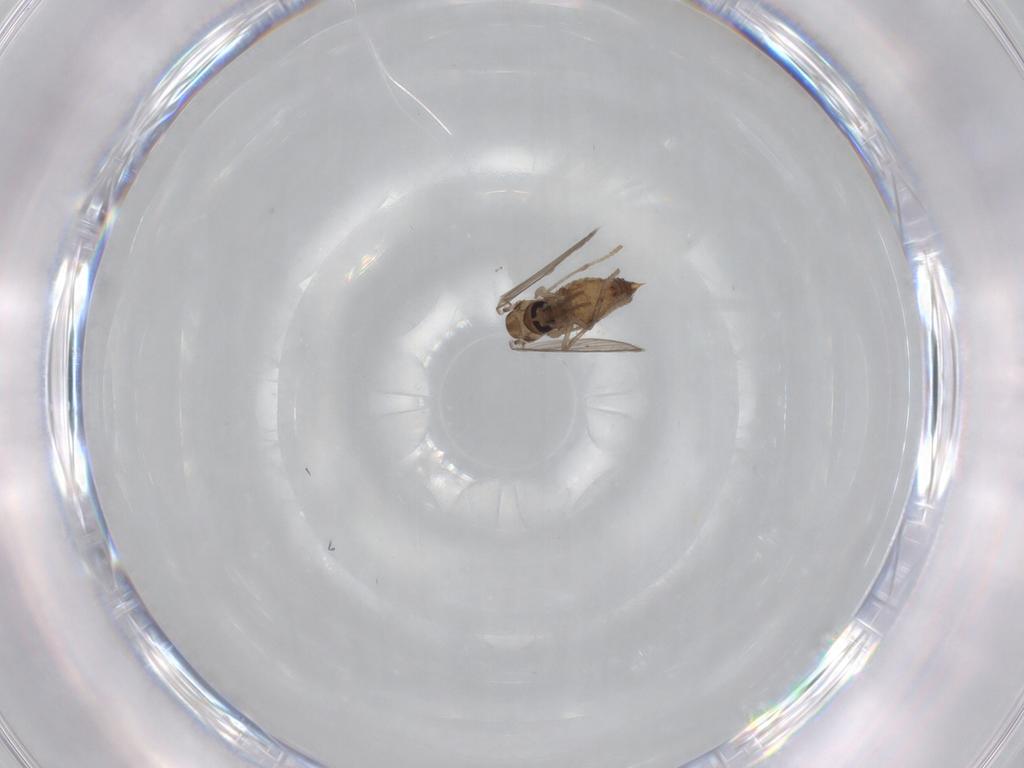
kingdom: Animalia
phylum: Arthropoda
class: Insecta
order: Diptera
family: Psychodidae
